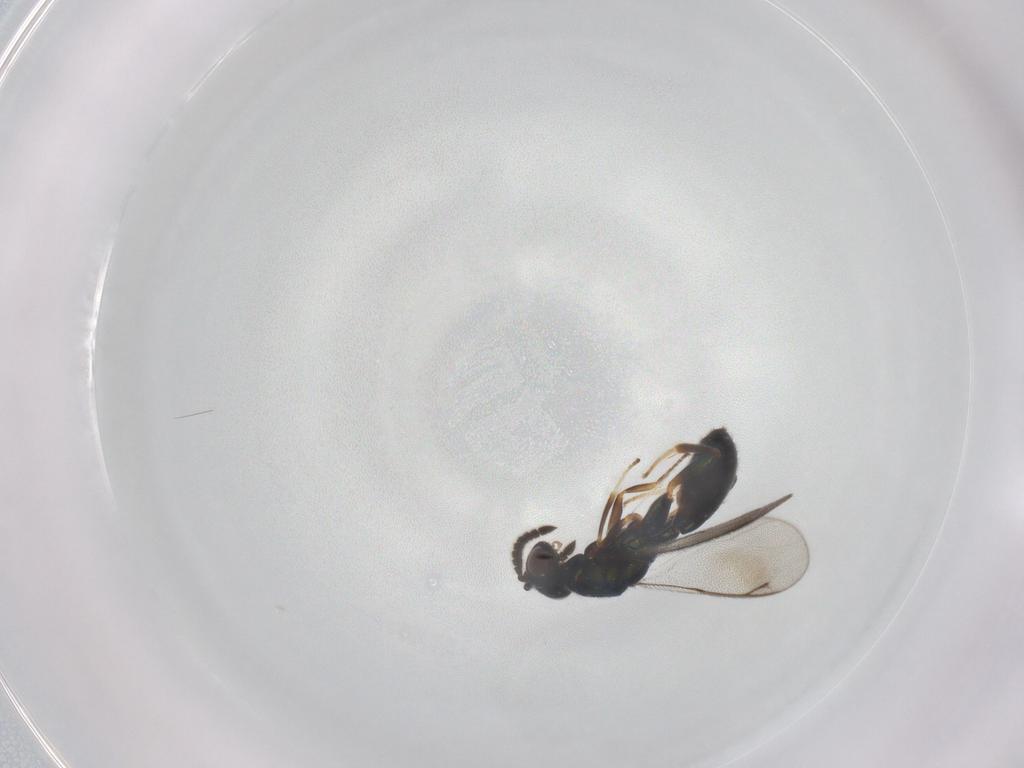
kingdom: Animalia
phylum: Arthropoda
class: Insecta
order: Hymenoptera
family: Cleonyminae
